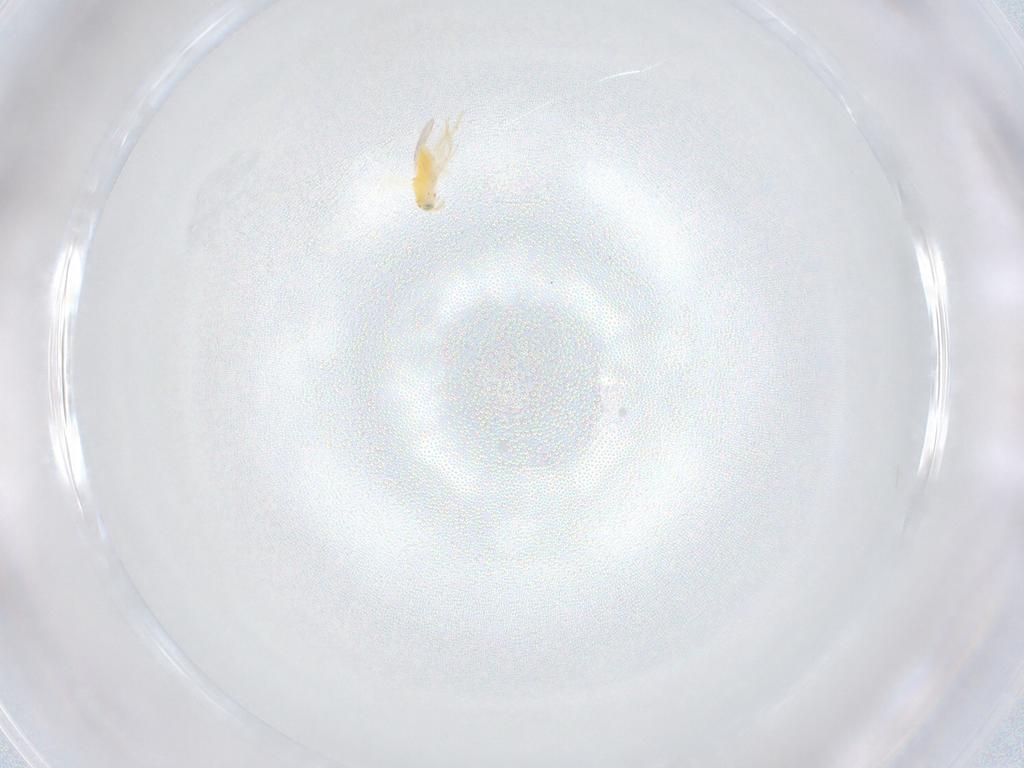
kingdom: Animalia
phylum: Arthropoda
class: Insecta
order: Hymenoptera
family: Aphelinidae
